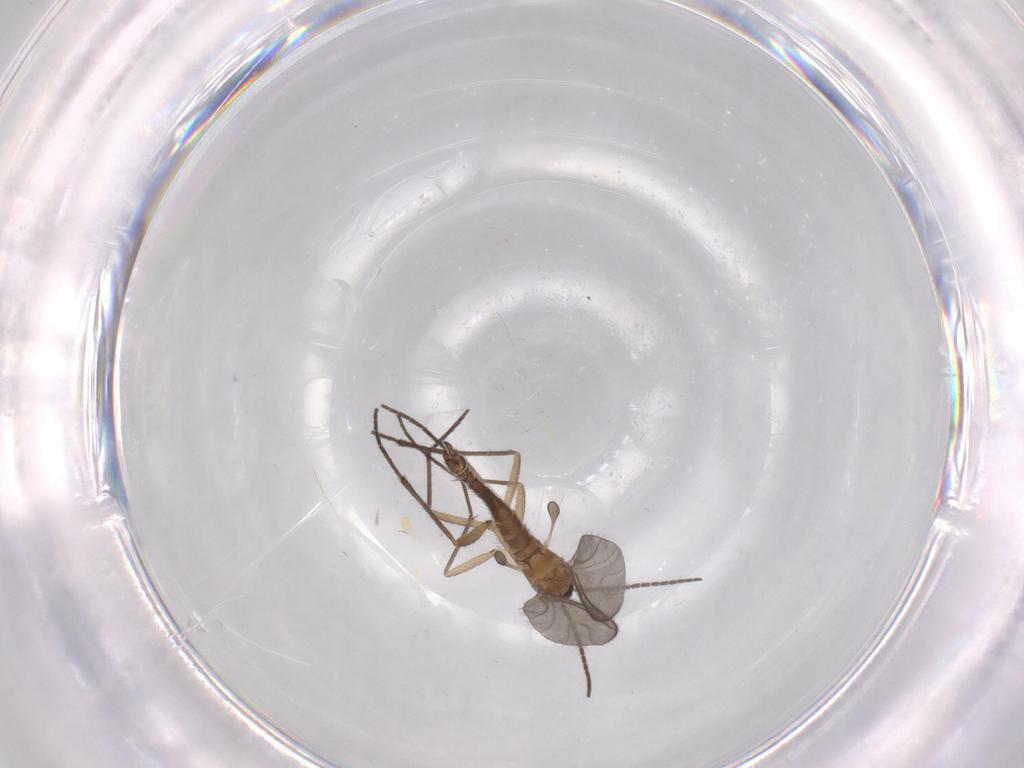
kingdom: Animalia
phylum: Arthropoda
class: Insecta
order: Diptera
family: Sciaridae
